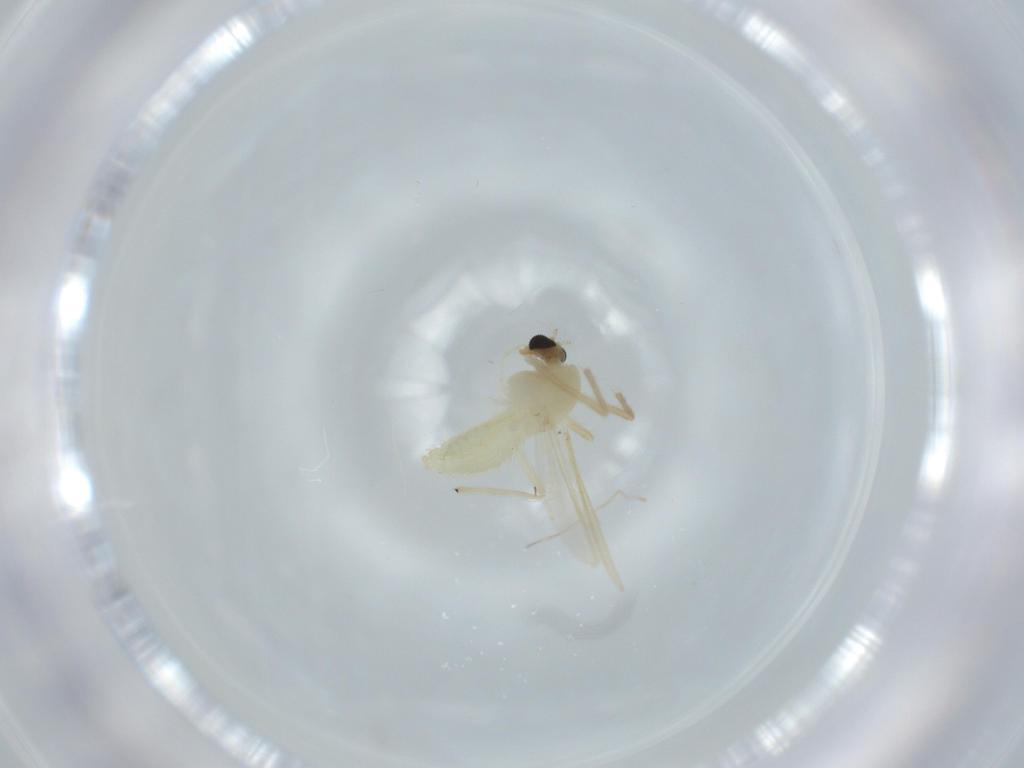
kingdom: Animalia
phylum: Arthropoda
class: Insecta
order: Diptera
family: Chironomidae
